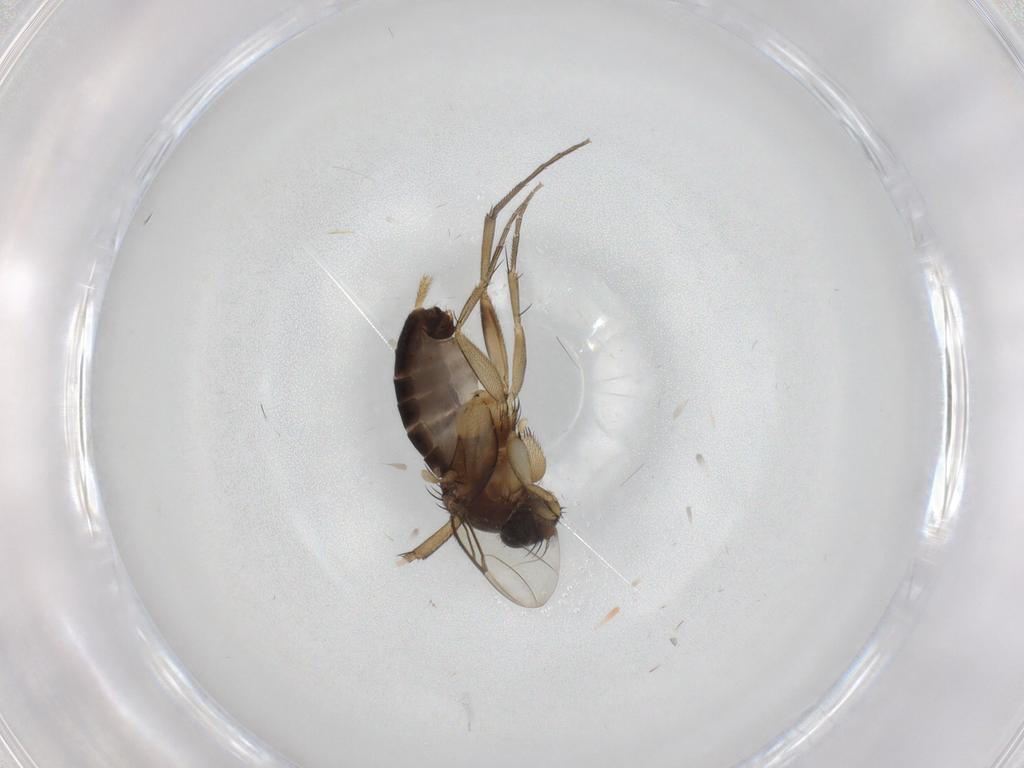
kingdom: Animalia
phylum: Arthropoda
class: Insecta
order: Diptera
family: Phoridae
